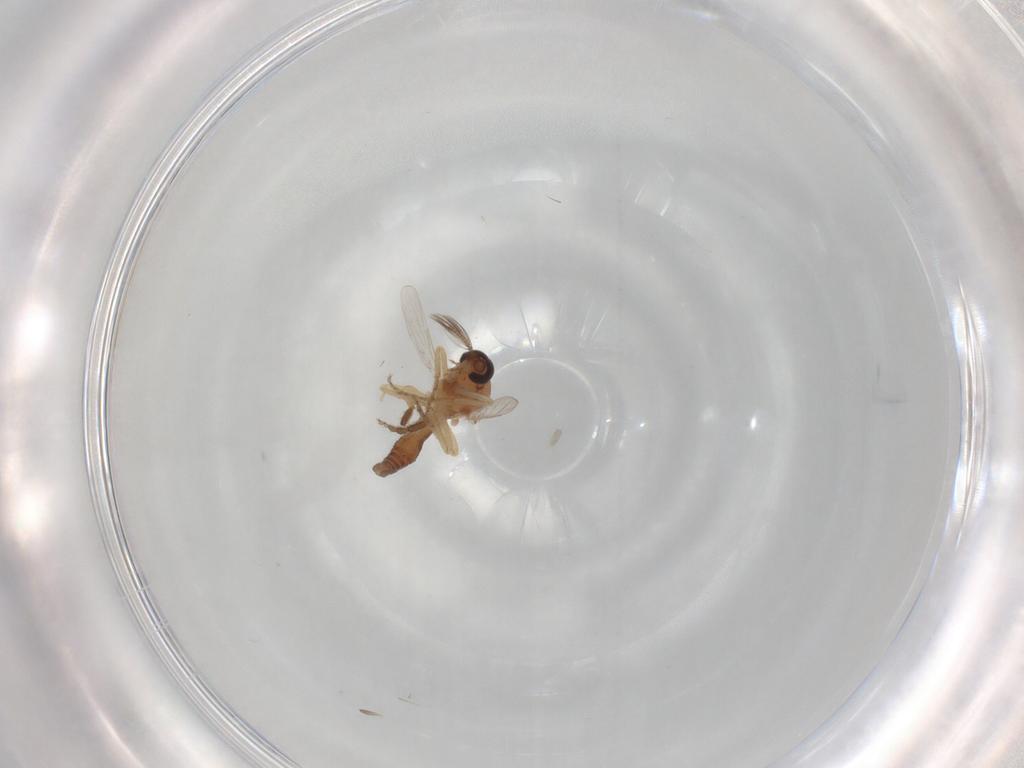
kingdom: Animalia
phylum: Arthropoda
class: Insecta
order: Diptera
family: Ceratopogonidae
